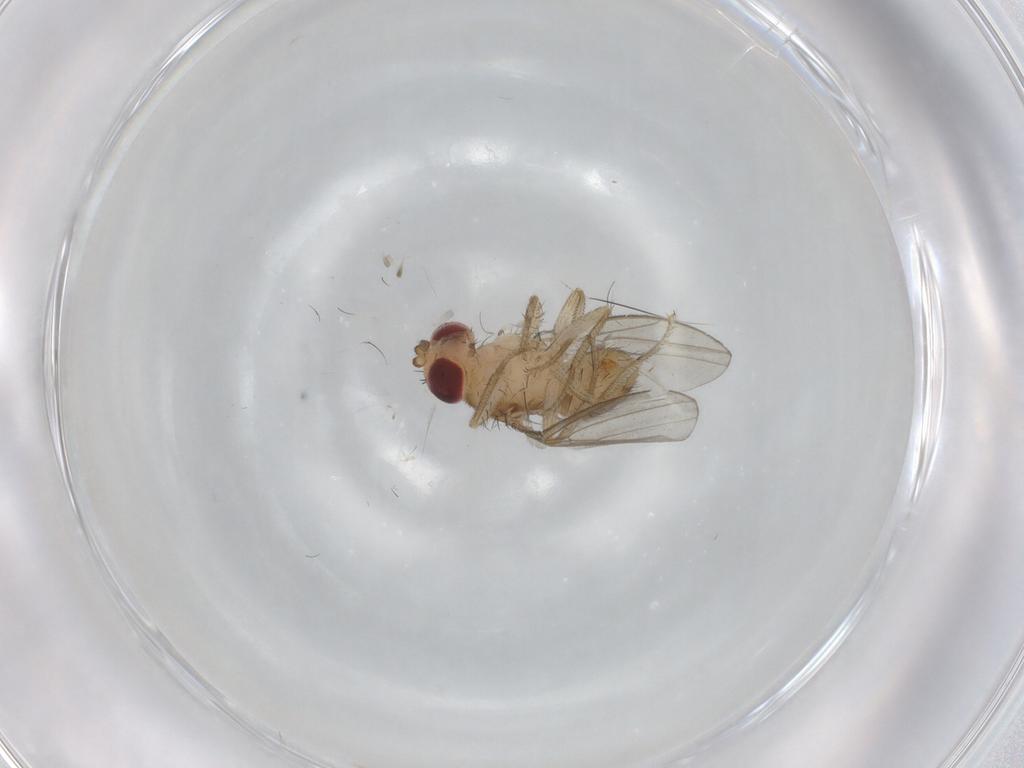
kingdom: Animalia
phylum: Arthropoda
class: Insecta
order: Diptera
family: Drosophilidae
